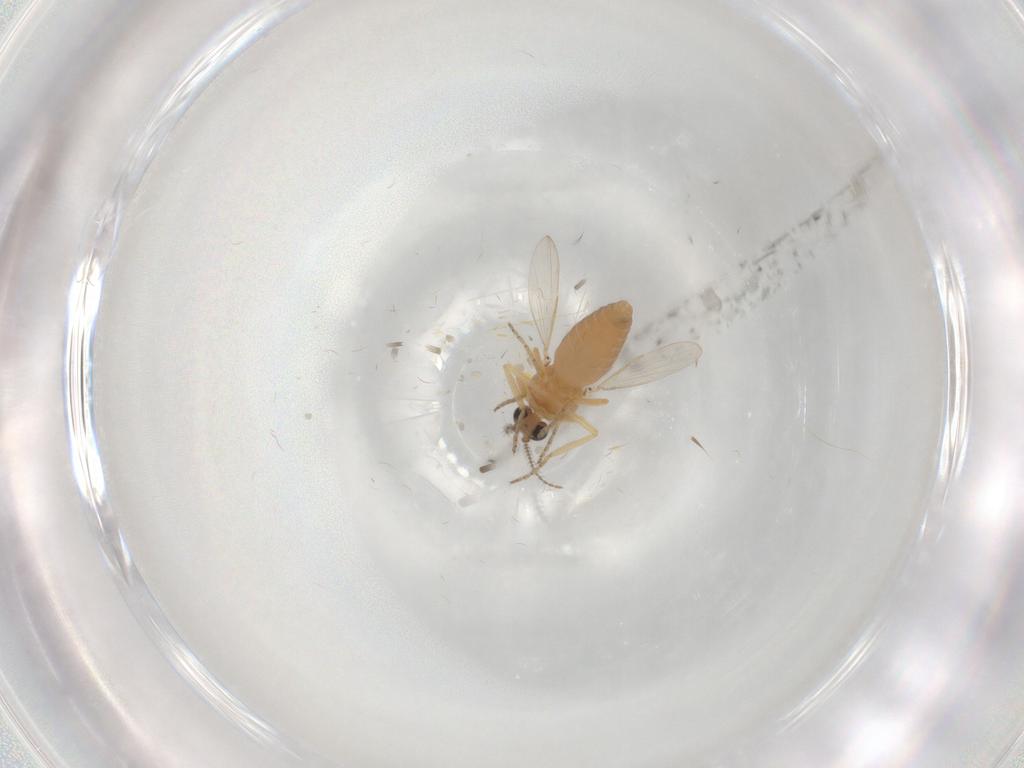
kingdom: Animalia
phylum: Arthropoda
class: Insecta
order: Diptera
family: Ceratopogonidae
